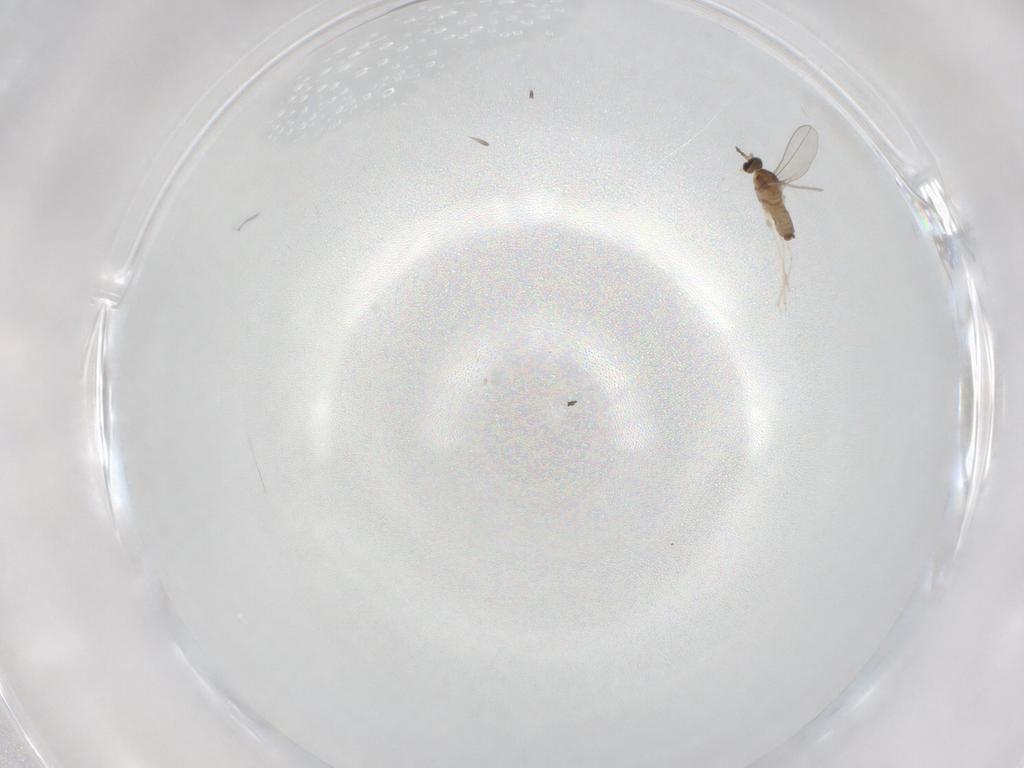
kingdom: Animalia
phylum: Arthropoda
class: Insecta
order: Diptera
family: Cecidomyiidae
